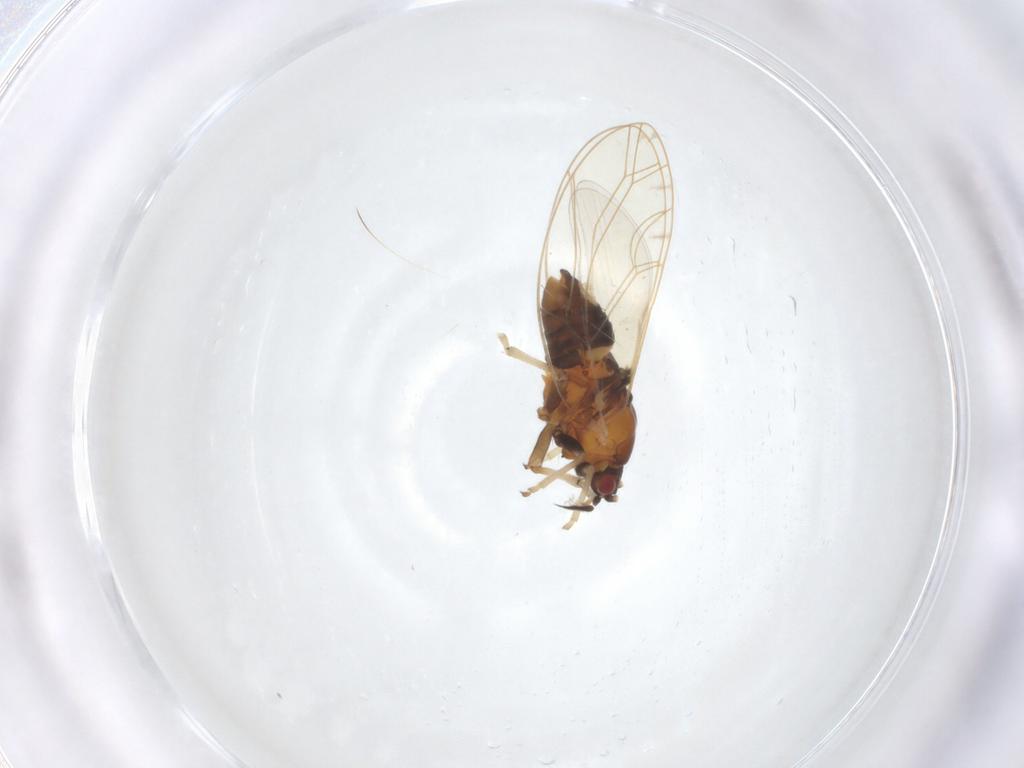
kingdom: Animalia
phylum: Arthropoda
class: Insecta
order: Hemiptera
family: Triozidae
